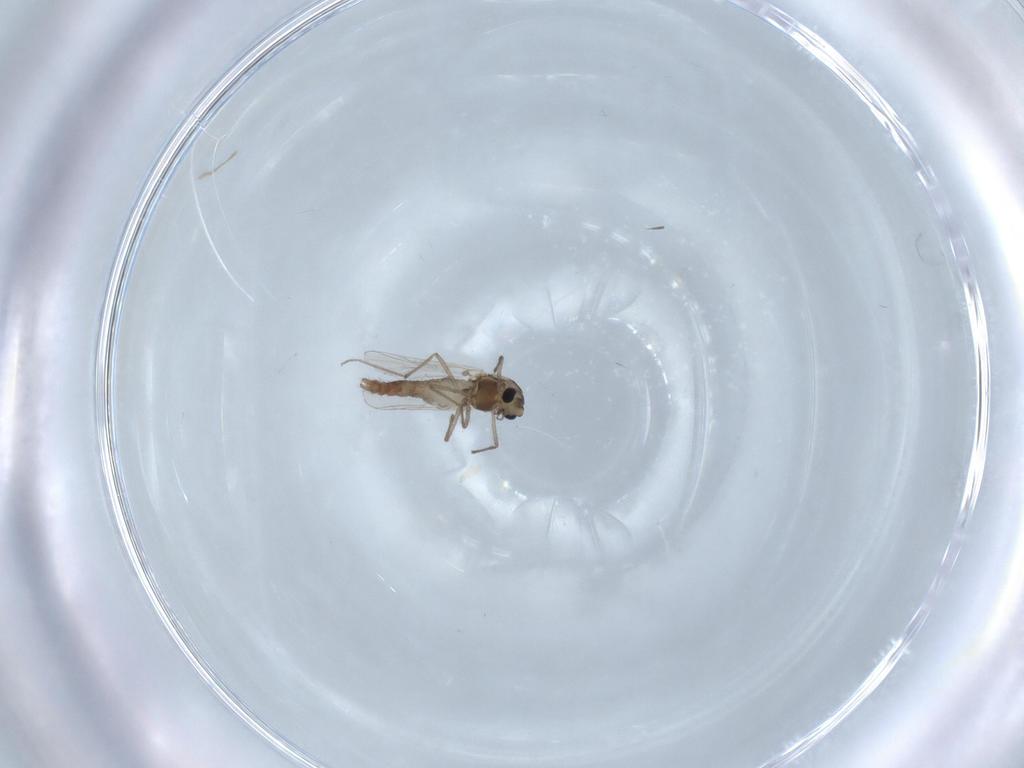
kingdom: Animalia
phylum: Arthropoda
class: Insecta
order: Diptera
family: Chironomidae
